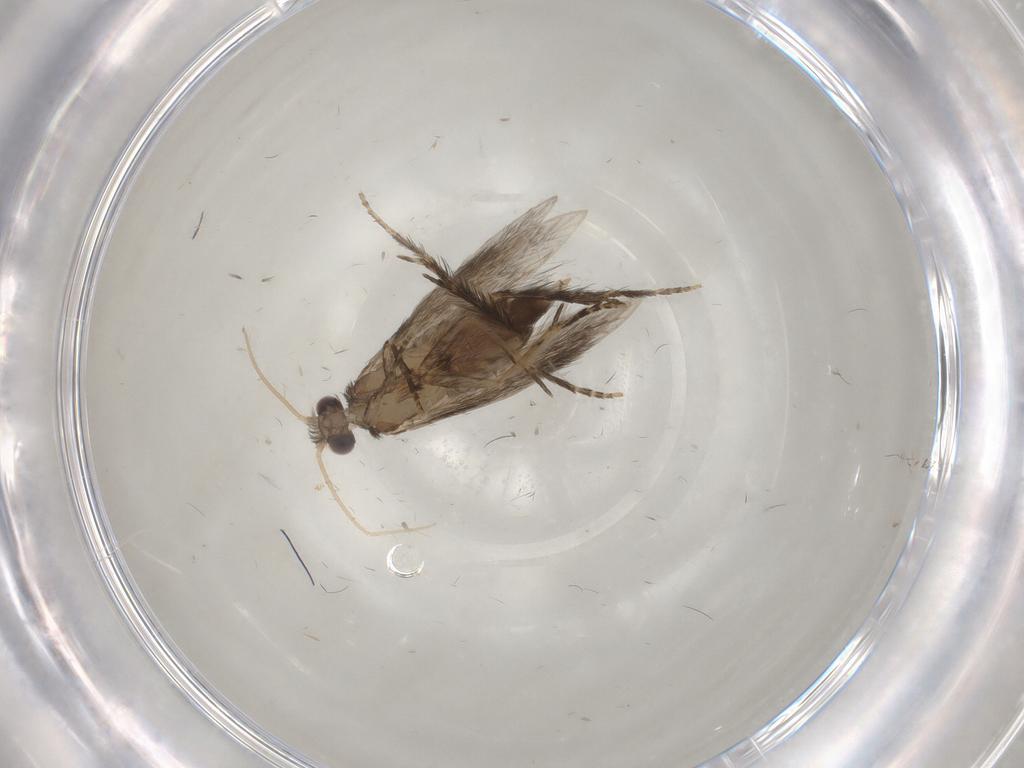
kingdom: Animalia
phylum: Arthropoda
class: Insecta
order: Trichoptera
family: Hydroptilidae
